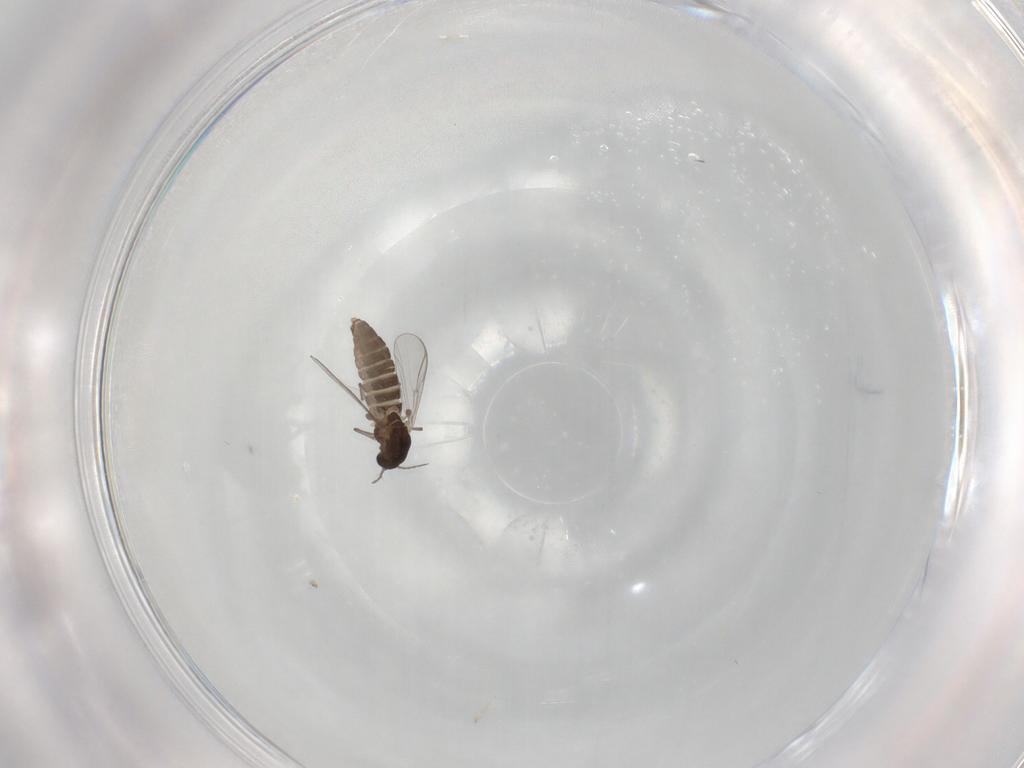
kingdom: Animalia
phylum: Arthropoda
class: Insecta
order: Diptera
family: Chironomidae
